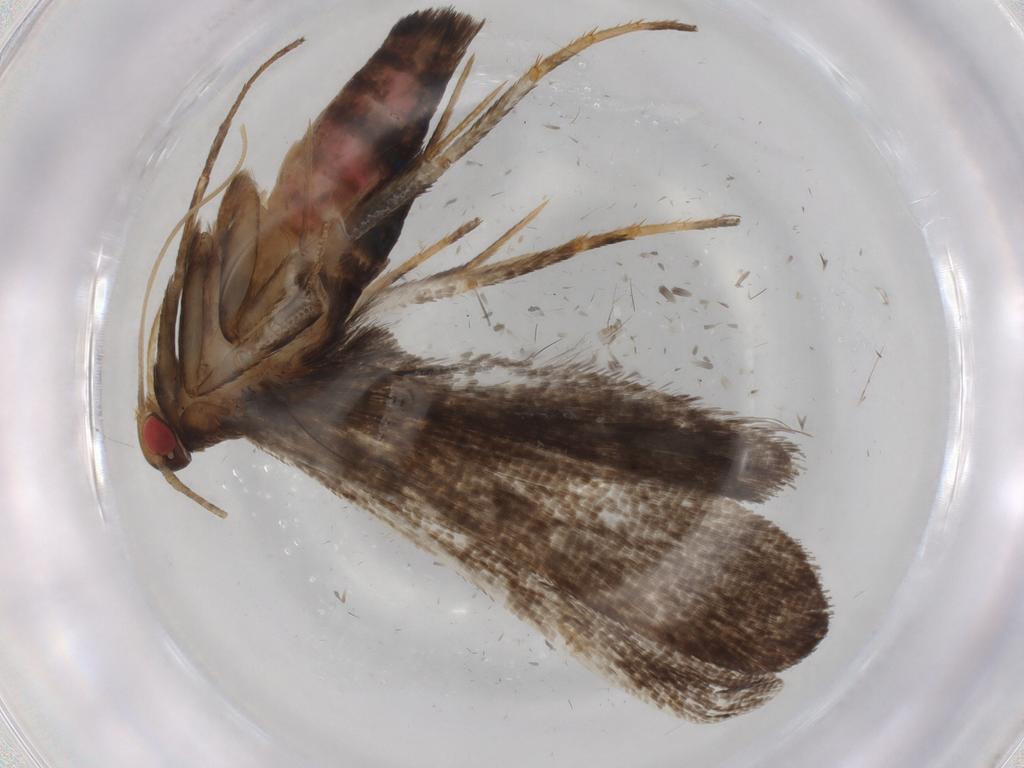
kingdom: Animalia
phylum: Arthropoda
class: Insecta
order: Lepidoptera
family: Gelechiidae
